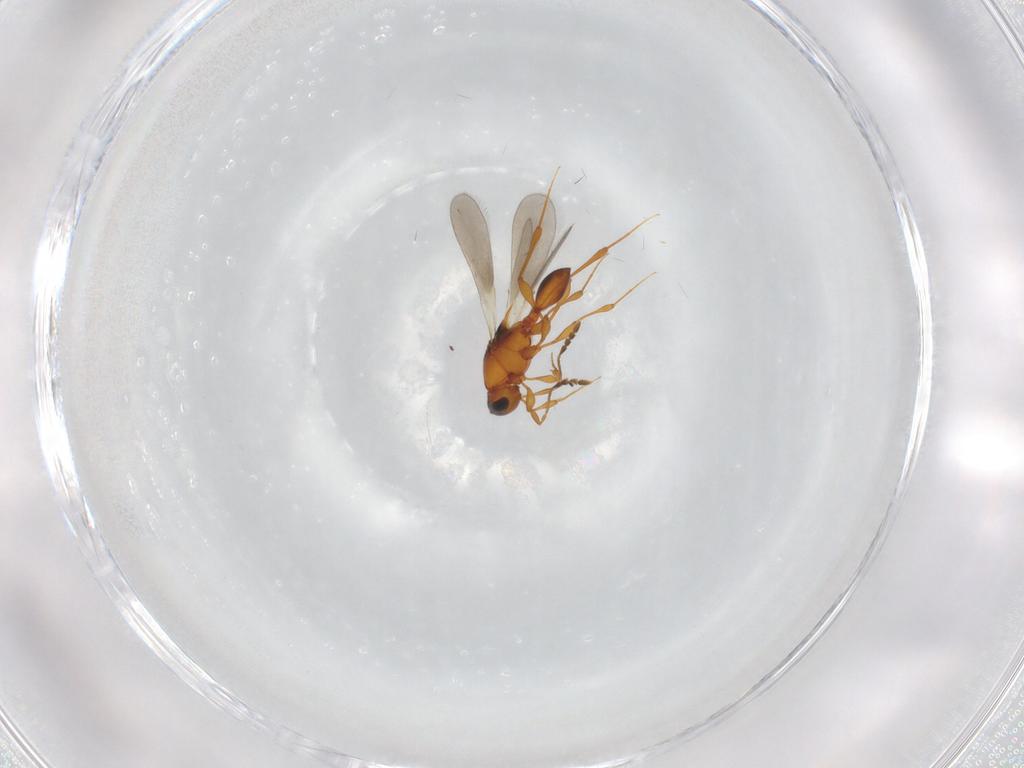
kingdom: Animalia
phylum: Arthropoda
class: Insecta
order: Hymenoptera
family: Platygastridae
